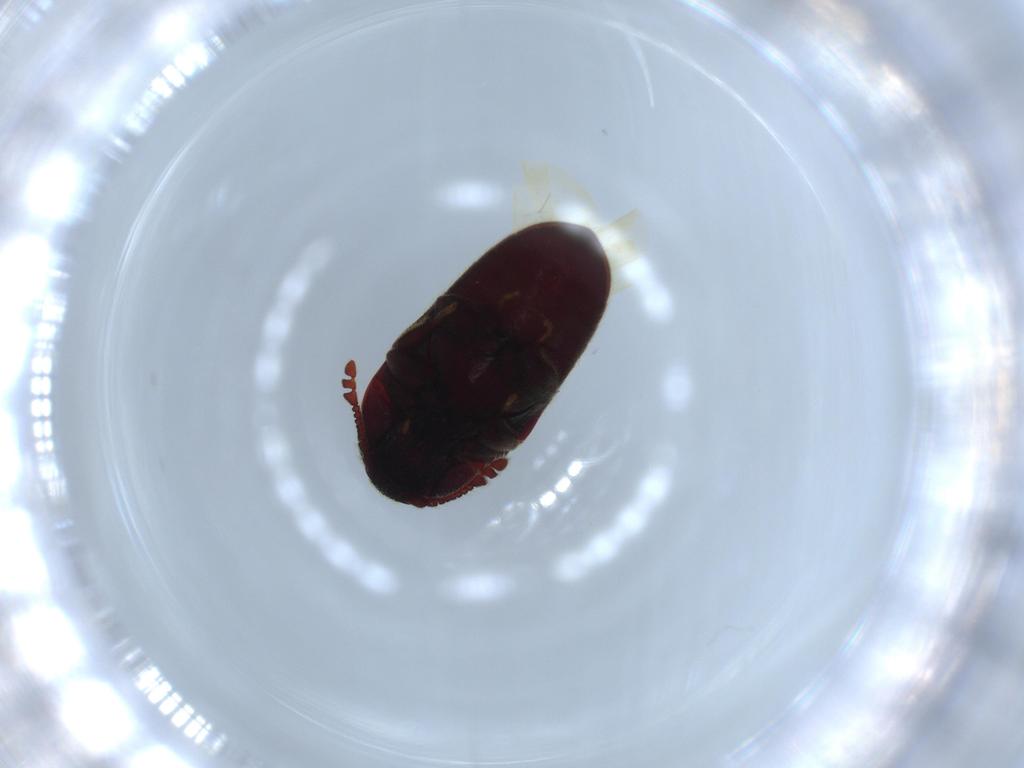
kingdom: Animalia
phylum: Arthropoda
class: Insecta
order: Coleoptera
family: Throscidae
